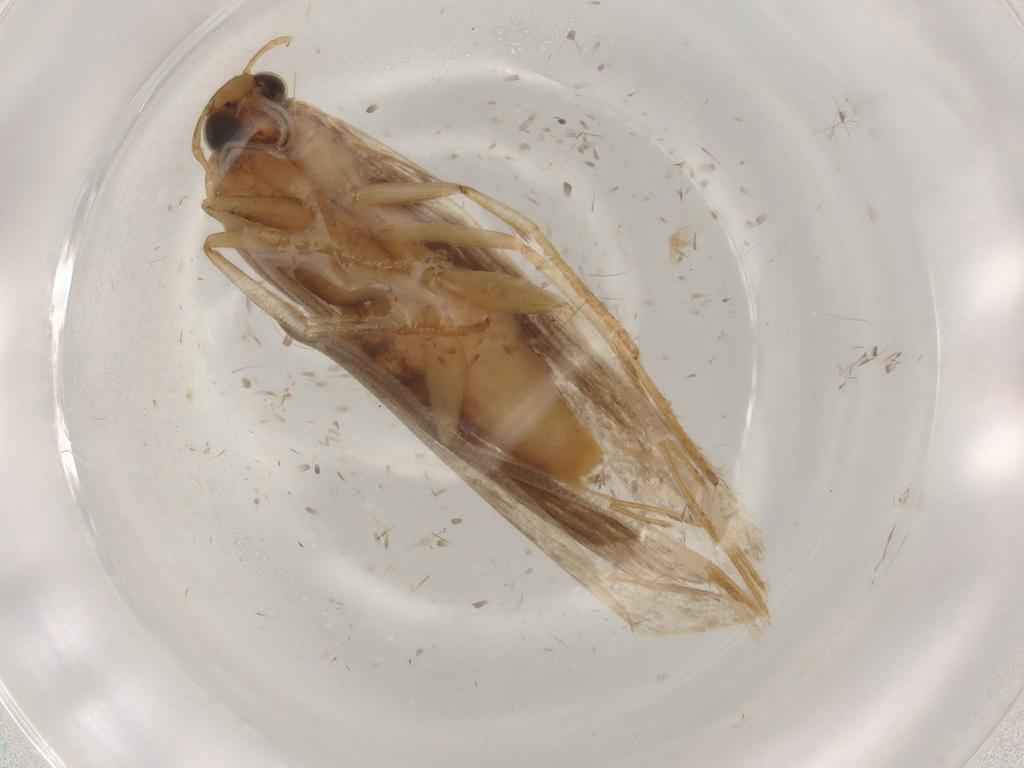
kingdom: Animalia
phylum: Arthropoda
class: Insecta
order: Lepidoptera
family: Gelechiidae
